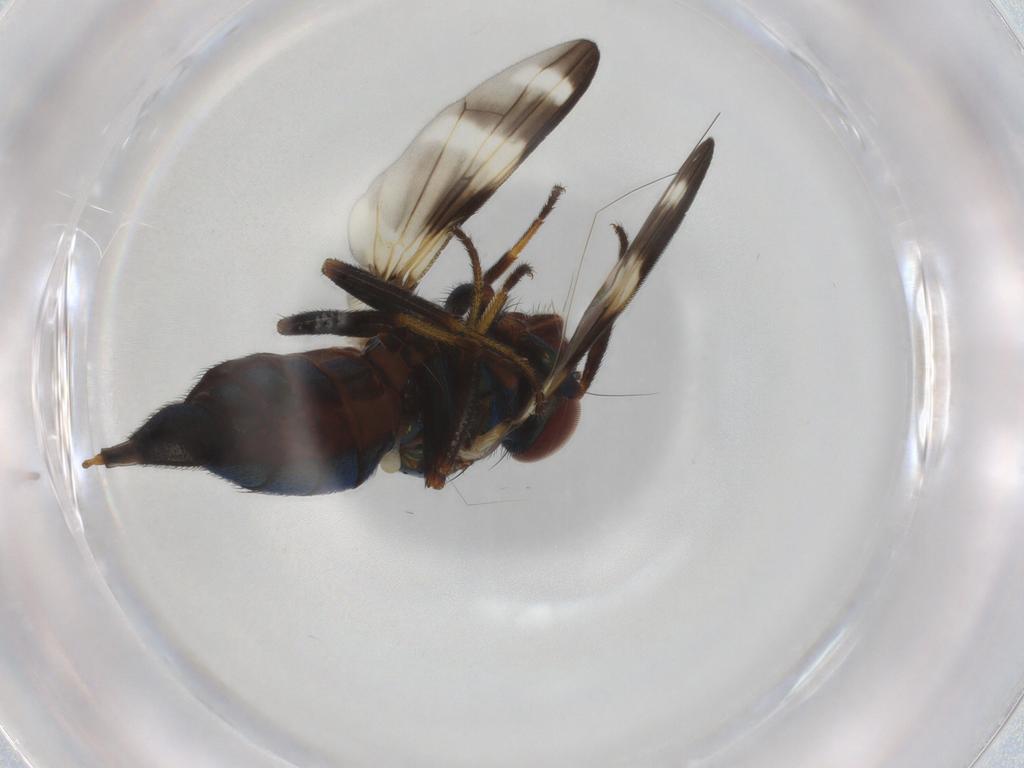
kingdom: Animalia
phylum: Arthropoda
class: Insecta
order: Diptera
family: Ulidiidae
